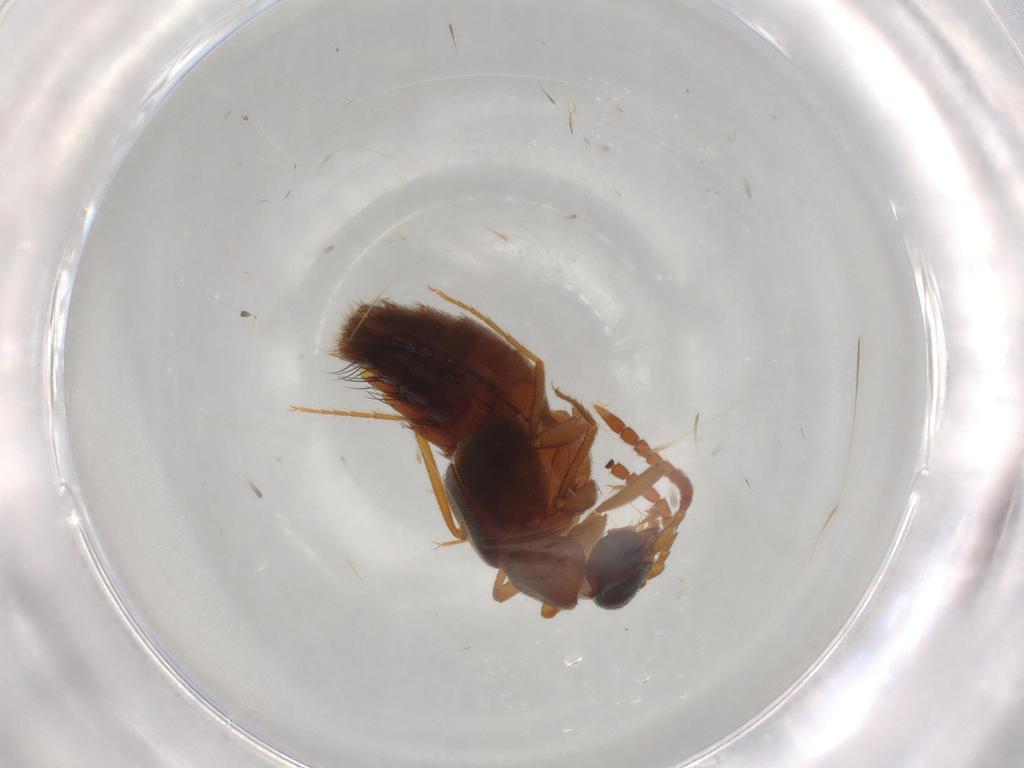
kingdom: Animalia
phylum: Arthropoda
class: Insecta
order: Coleoptera
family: Staphylinidae
